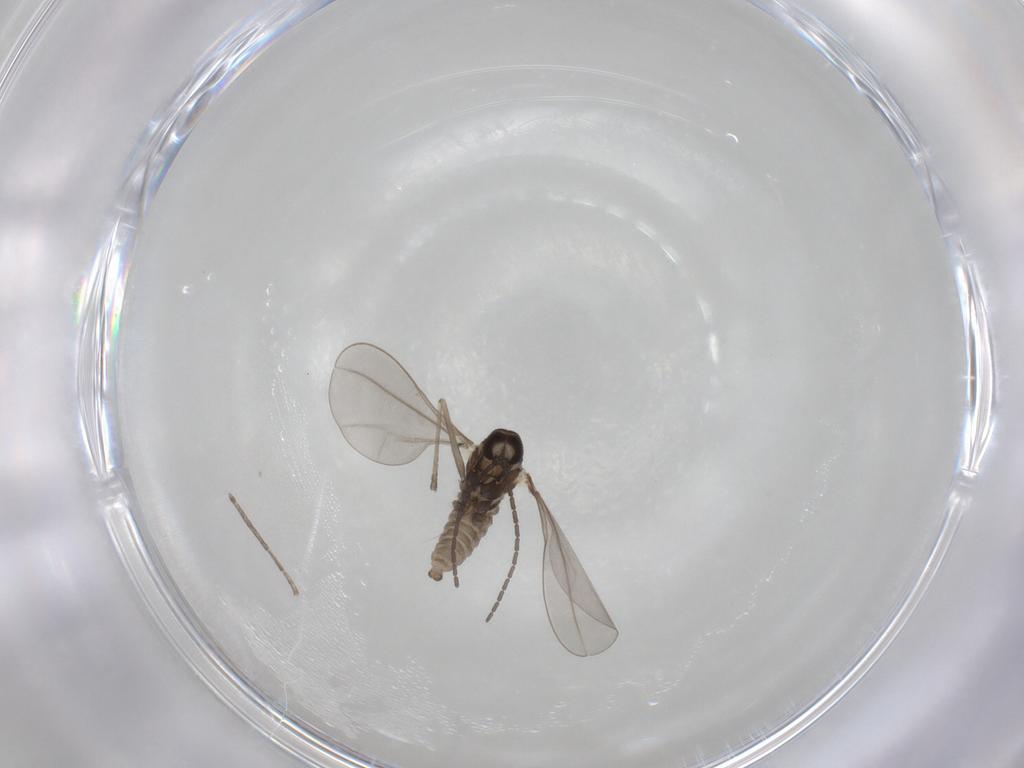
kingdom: Animalia
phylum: Arthropoda
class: Insecta
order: Diptera
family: Cecidomyiidae
